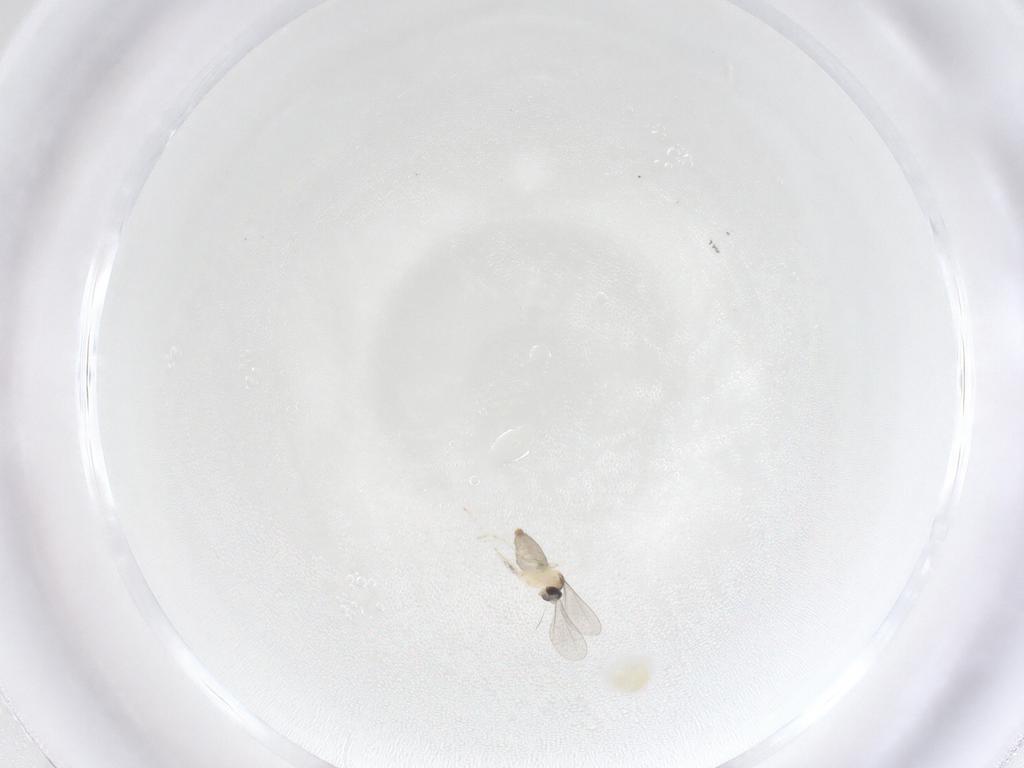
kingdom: Animalia
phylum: Arthropoda
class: Insecta
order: Diptera
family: Cecidomyiidae
